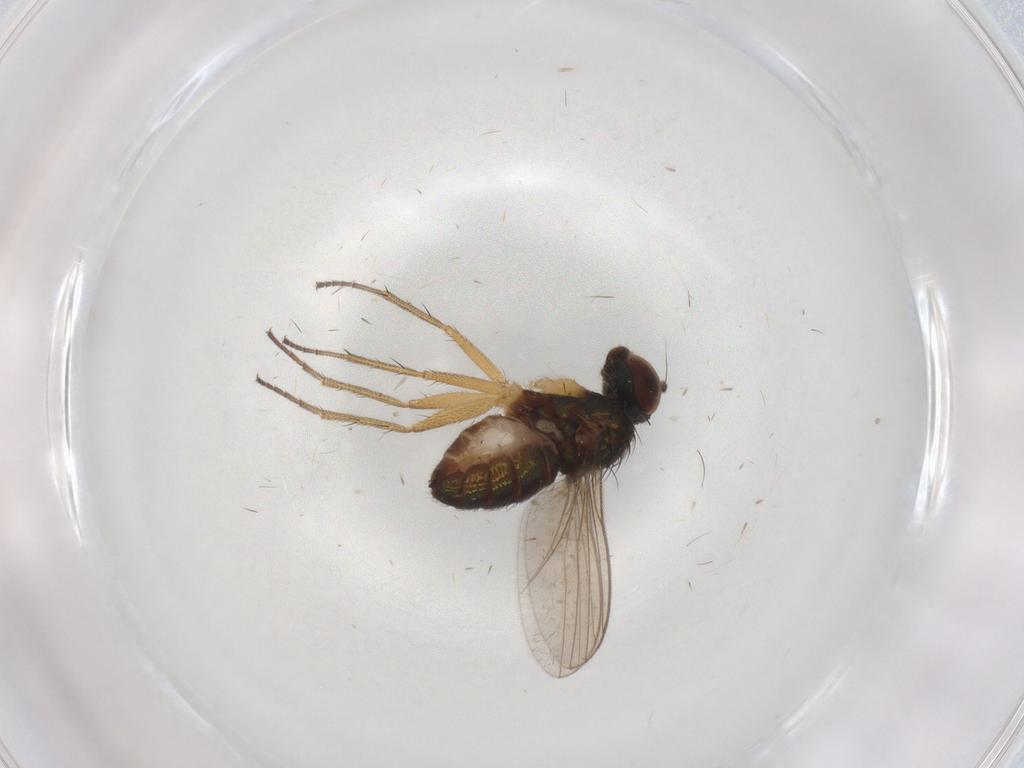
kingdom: Animalia
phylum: Arthropoda
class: Insecta
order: Diptera
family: Dolichopodidae
